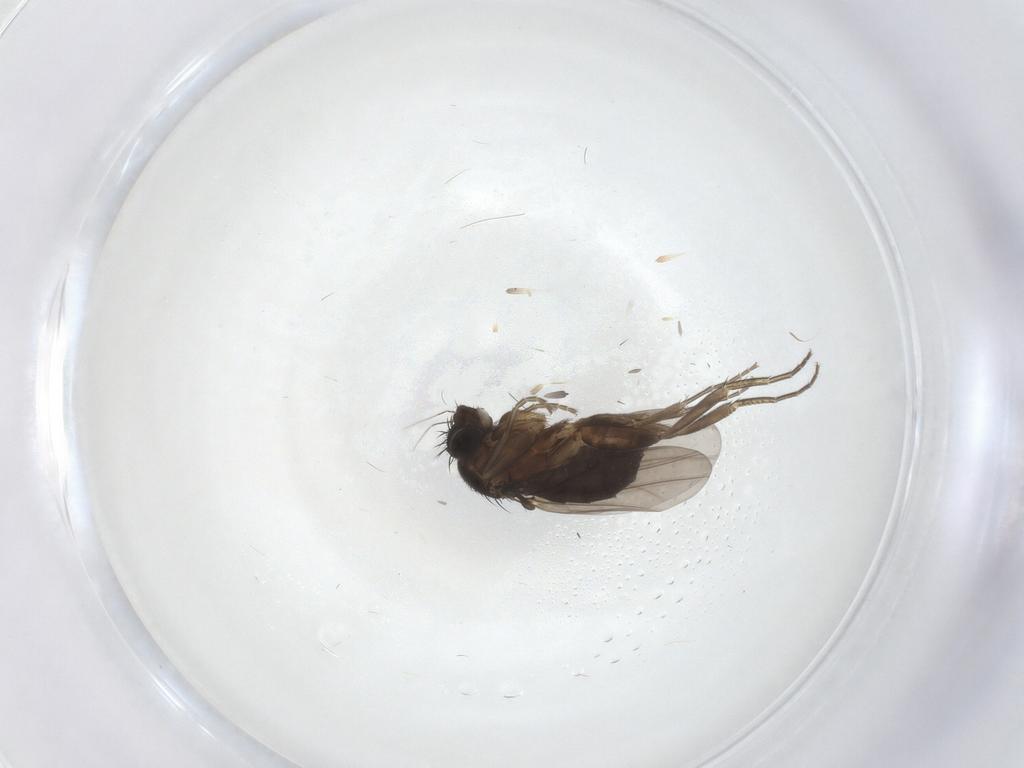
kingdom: Animalia
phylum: Arthropoda
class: Insecta
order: Diptera
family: Phoridae
